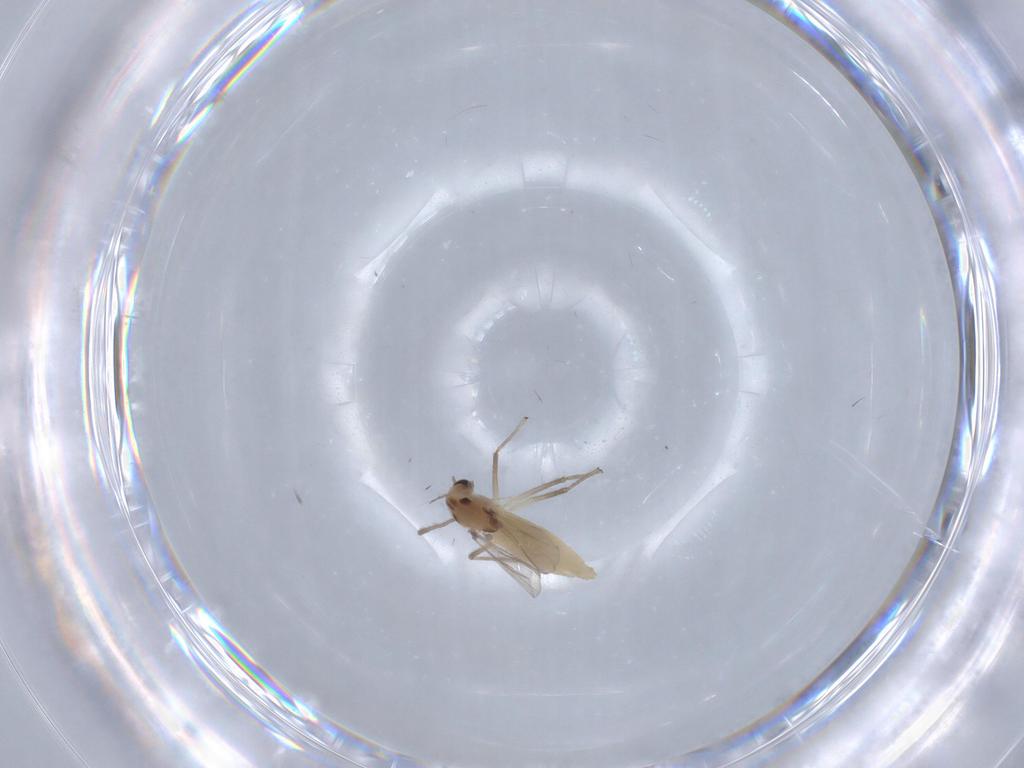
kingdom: Animalia
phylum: Arthropoda
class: Insecta
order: Diptera
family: Chironomidae
